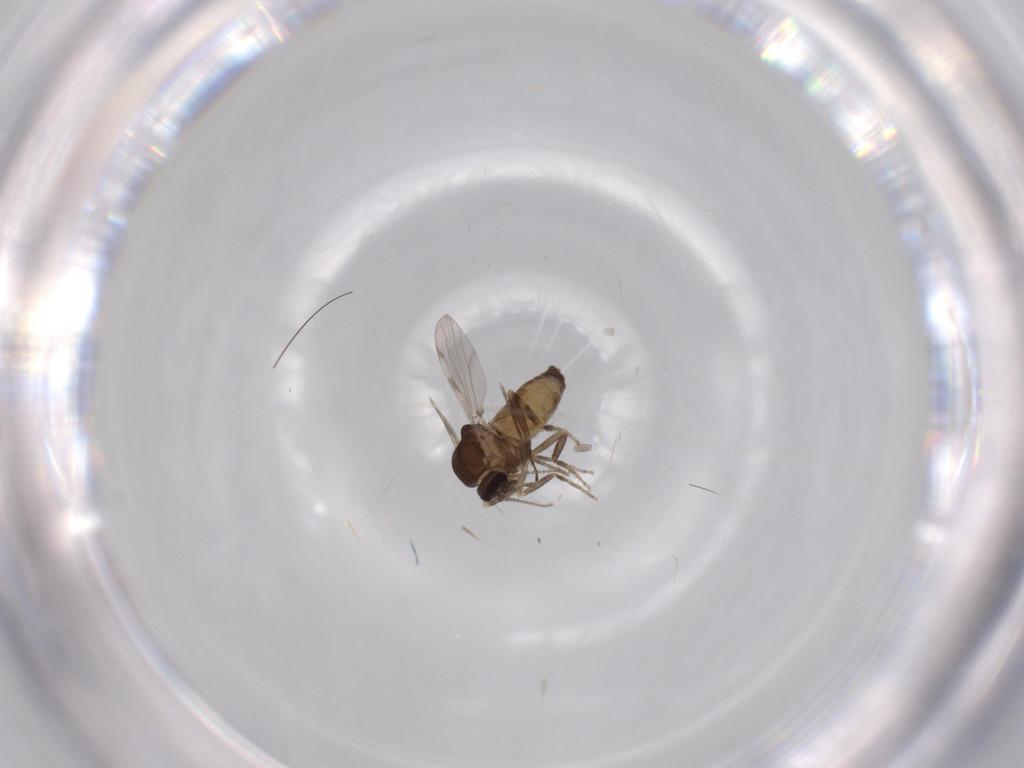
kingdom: Animalia
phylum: Arthropoda
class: Insecta
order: Diptera
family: Ceratopogonidae
